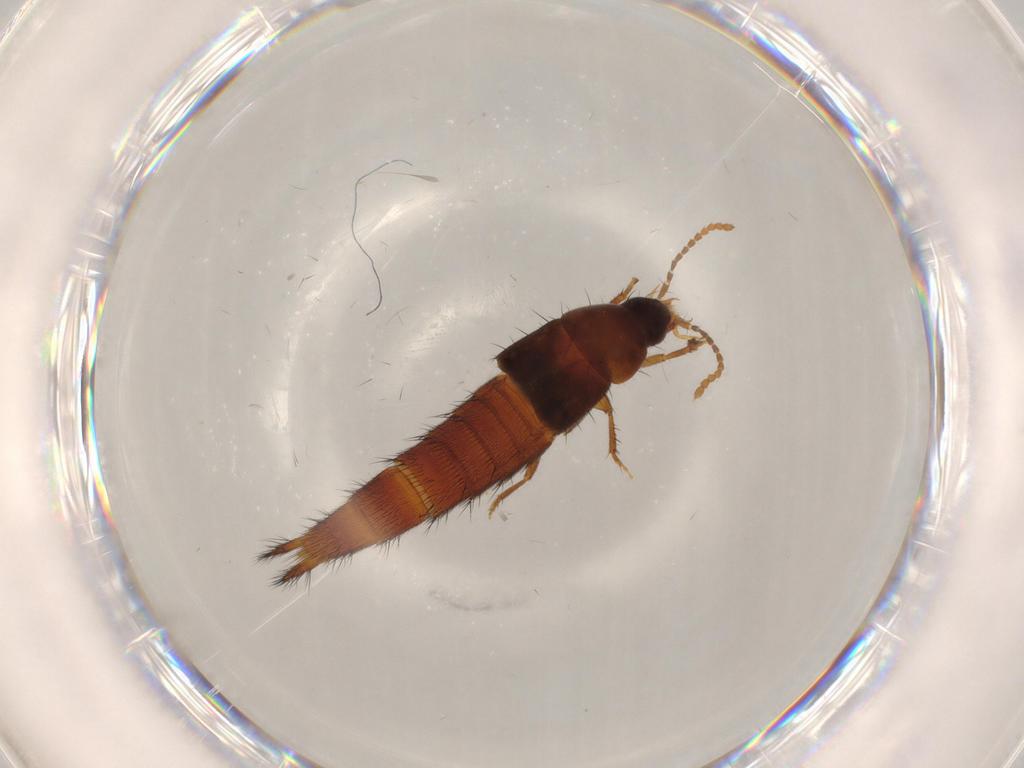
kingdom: Animalia
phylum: Arthropoda
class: Insecta
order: Coleoptera
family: Staphylinidae
